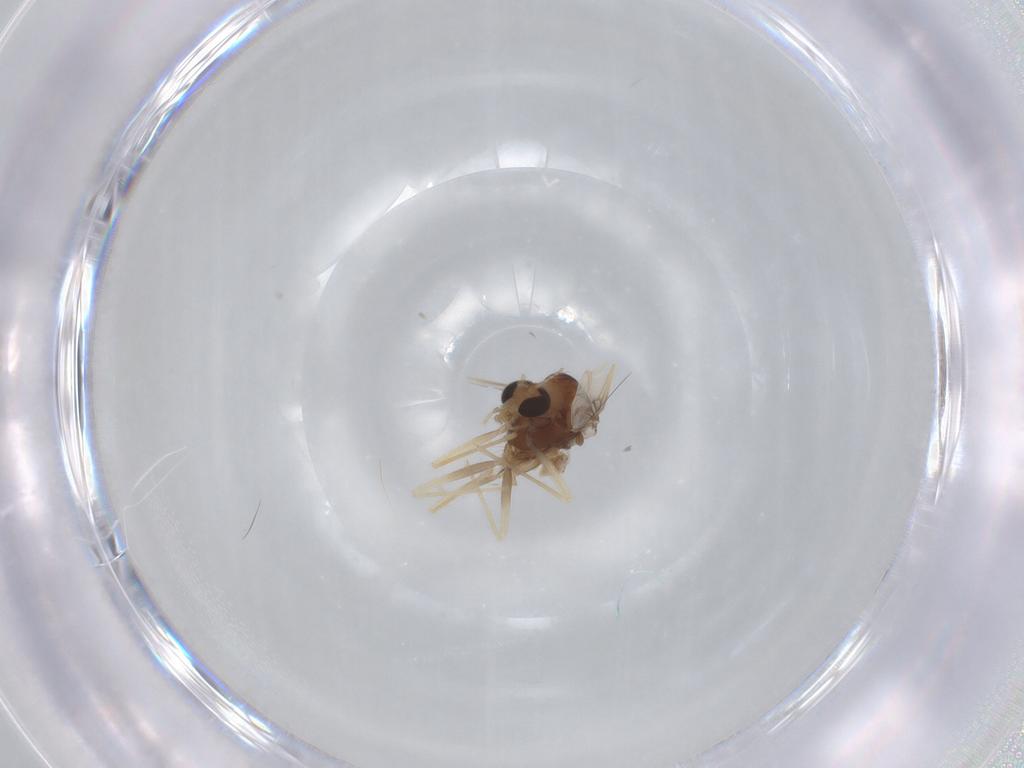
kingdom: Animalia
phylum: Arthropoda
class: Insecta
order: Diptera
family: Chironomidae
